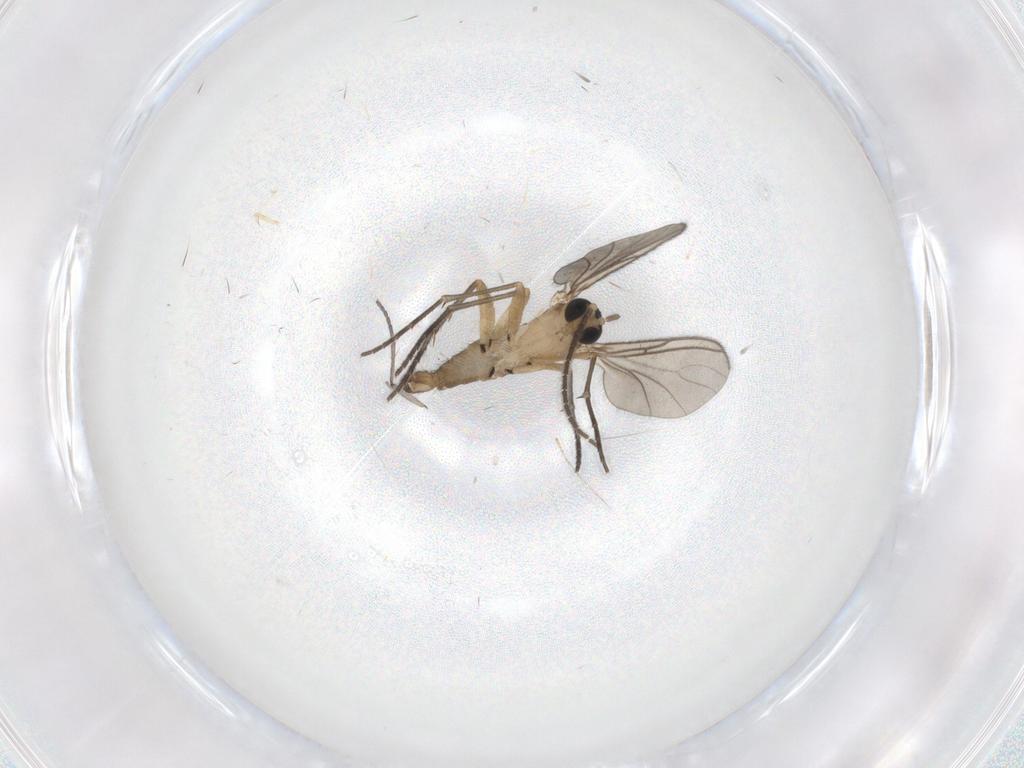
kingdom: Animalia
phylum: Arthropoda
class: Insecta
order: Diptera
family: Sciaridae
